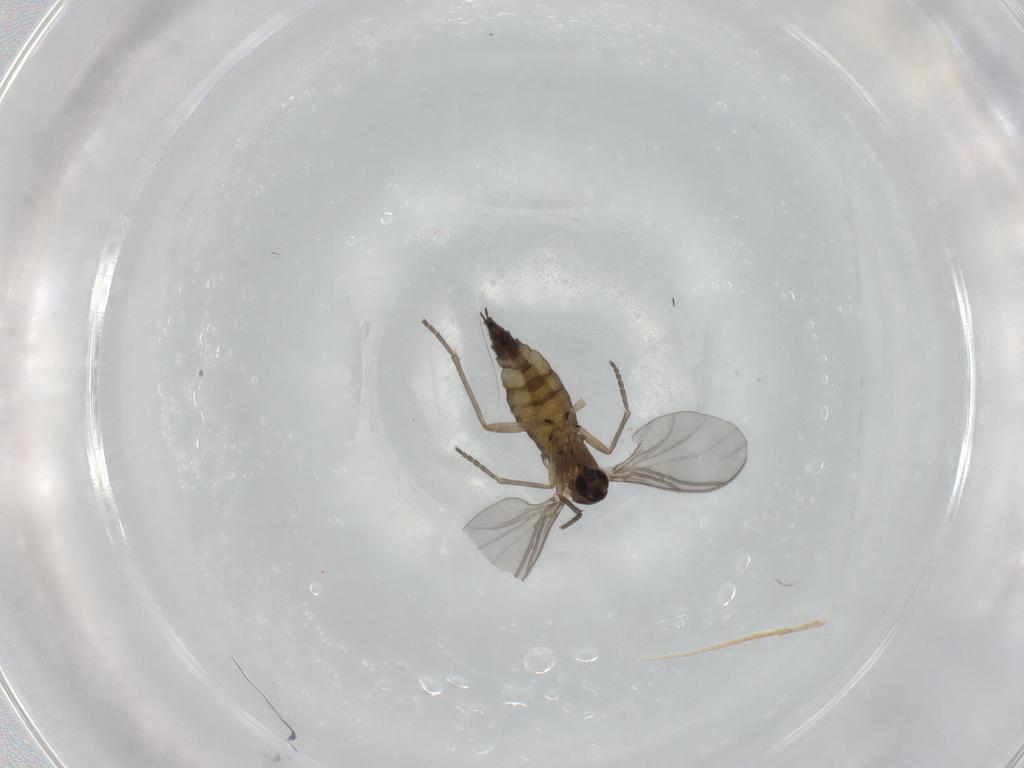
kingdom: Animalia
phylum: Arthropoda
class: Insecta
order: Diptera
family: Sciaridae
